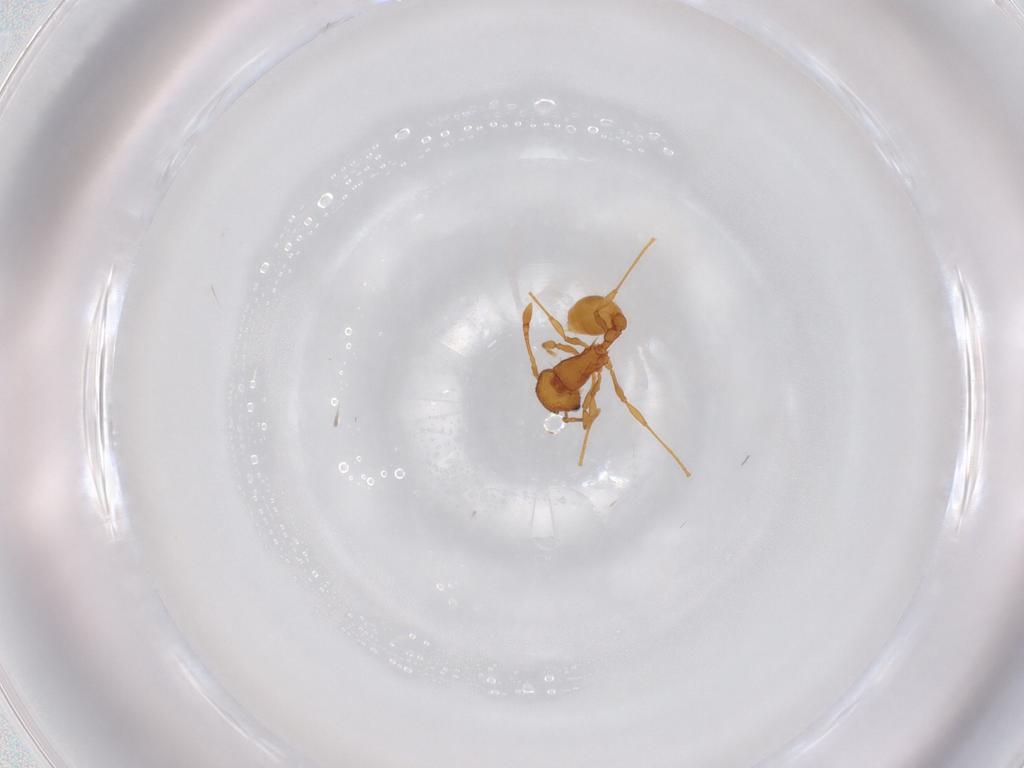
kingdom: Animalia
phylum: Arthropoda
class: Insecta
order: Hymenoptera
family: Formicidae
